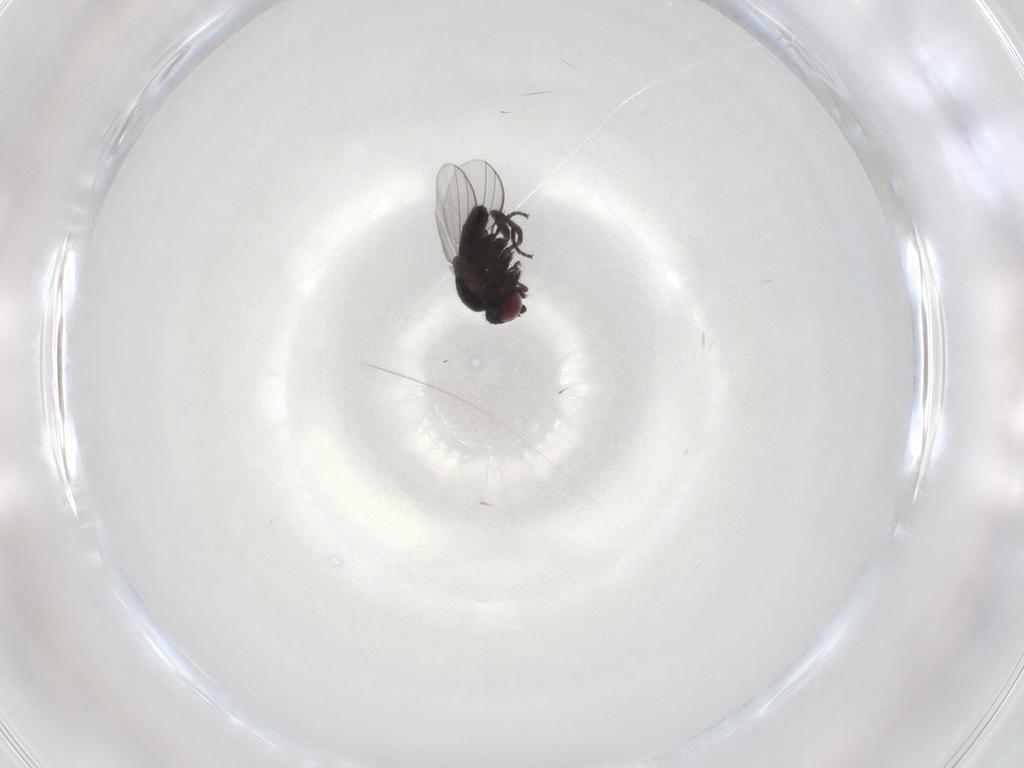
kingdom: Animalia
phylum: Arthropoda
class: Insecta
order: Diptera
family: Milichiidae
